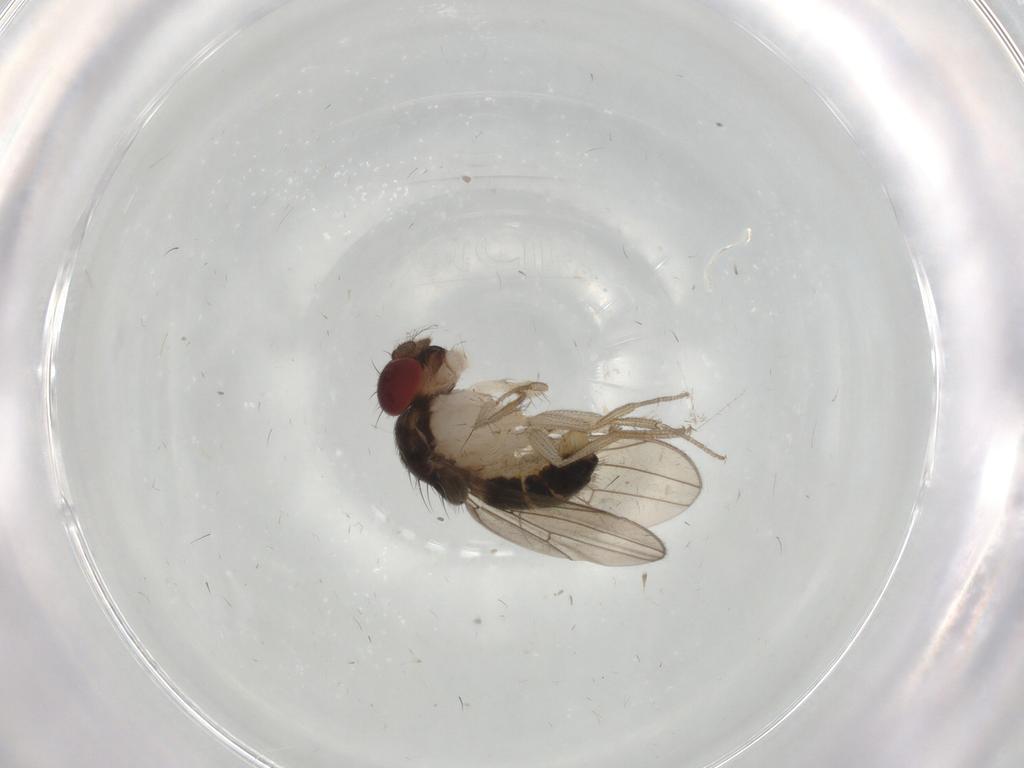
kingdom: Animalia
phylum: Arthropoda
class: Insecta
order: Diptera
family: Drosophilidae
